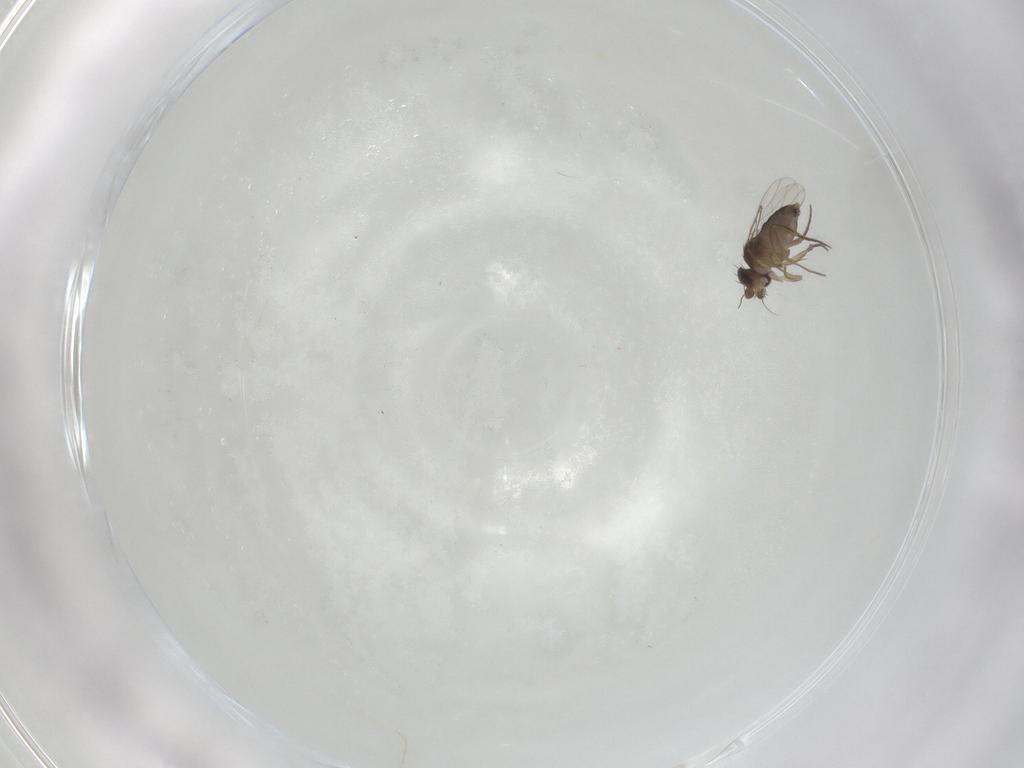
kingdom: Animalia
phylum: Arthropoda
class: Insecta
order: Diptera
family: Phoridae
